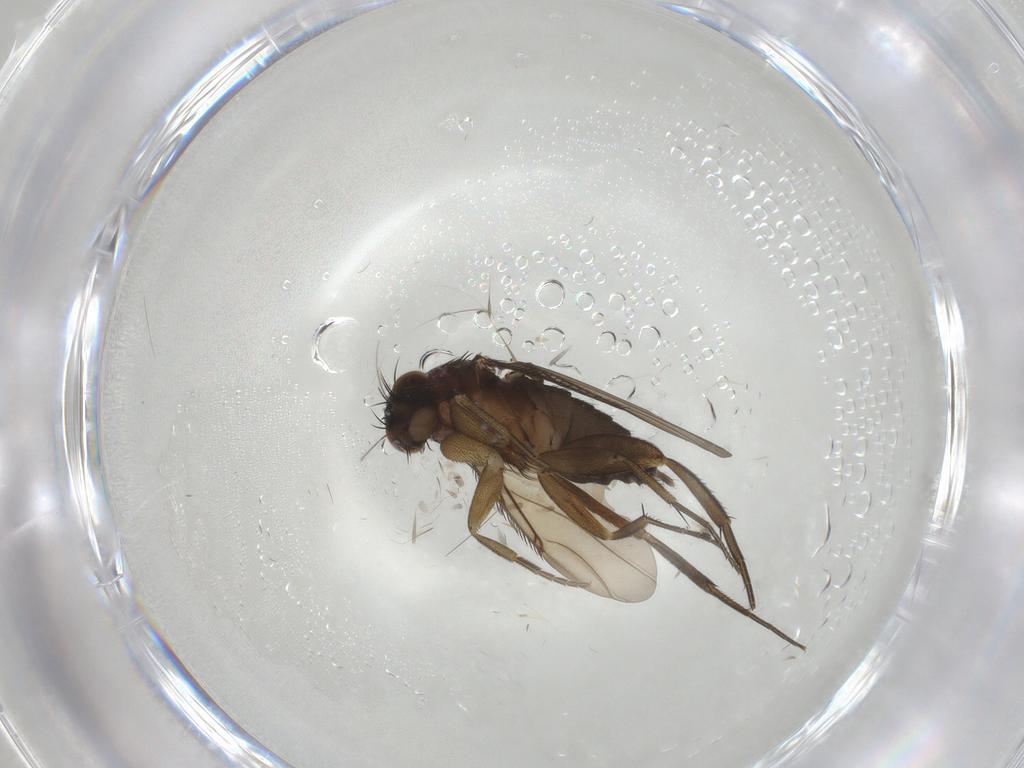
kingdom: Animalia
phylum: Arthropoda
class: Insecta
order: Diptera
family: Phoridae
